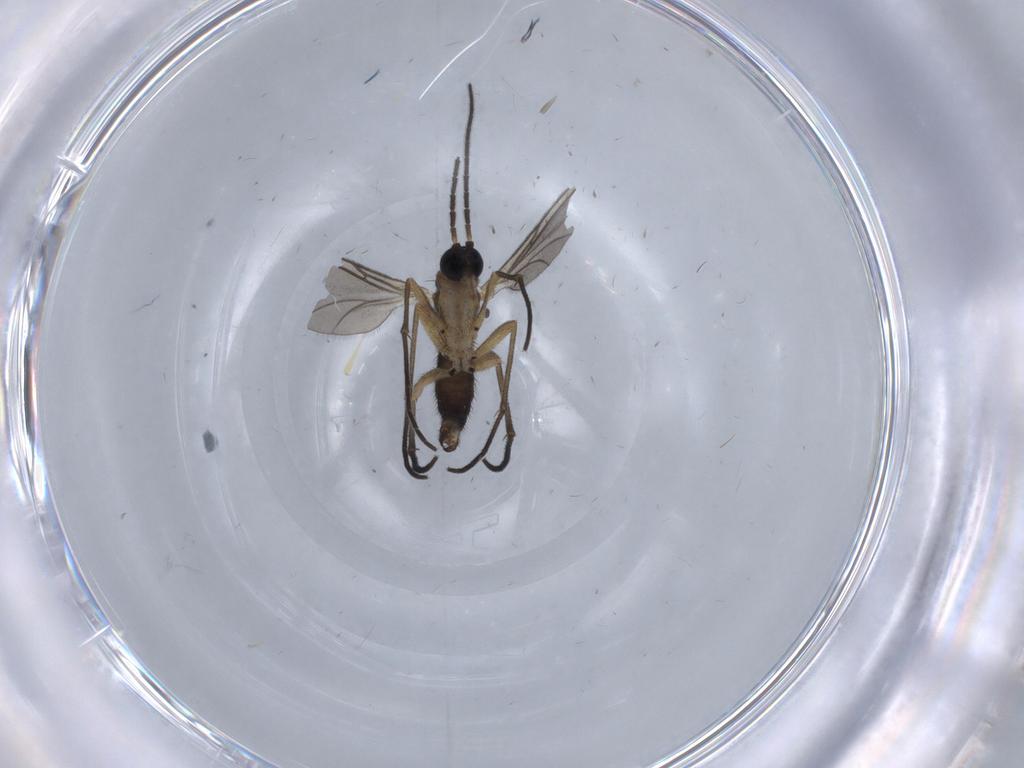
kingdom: Animalia
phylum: Arthropoda
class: Insecta
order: Diptera
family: Sciaridae
